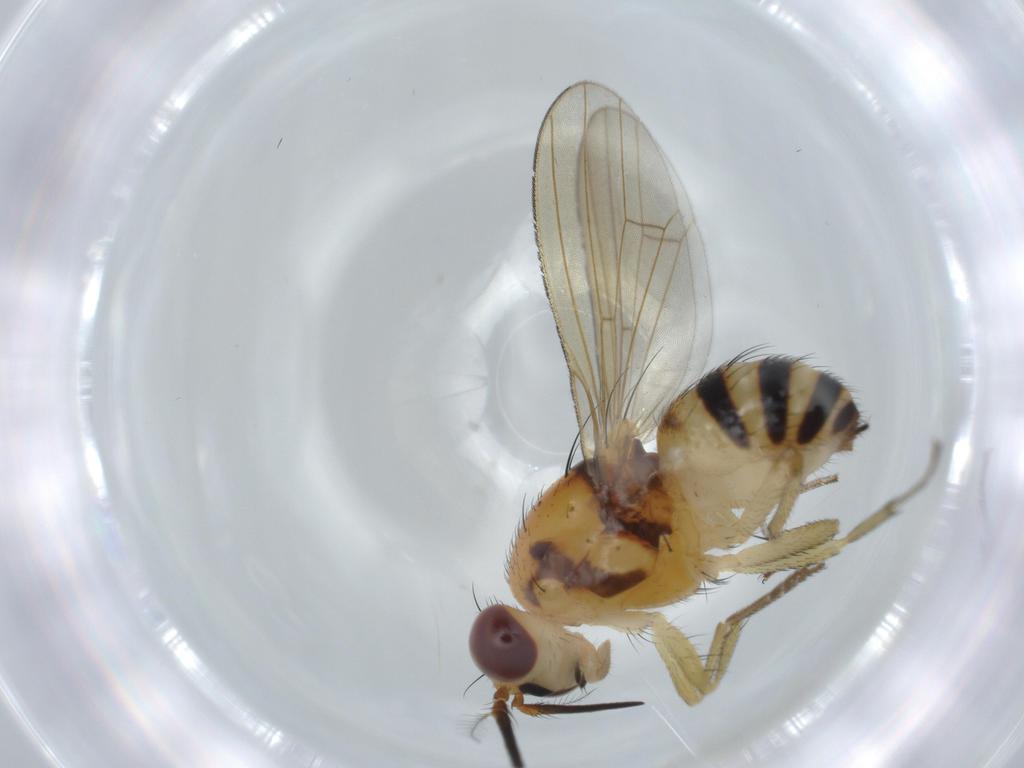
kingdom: Animalia
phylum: Arthropoda
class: Insecta
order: Diptera
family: Lauxaniidae
